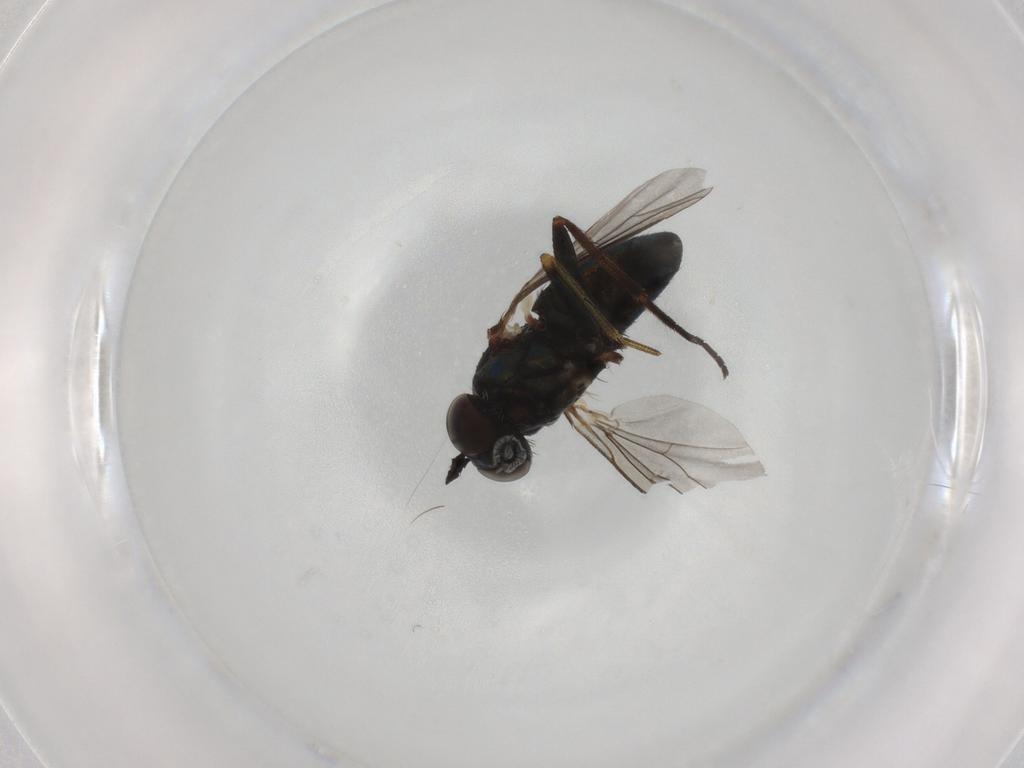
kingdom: Animalia
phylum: Arthropoda
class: Insecta
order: Diptera
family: Dolichopodidae
